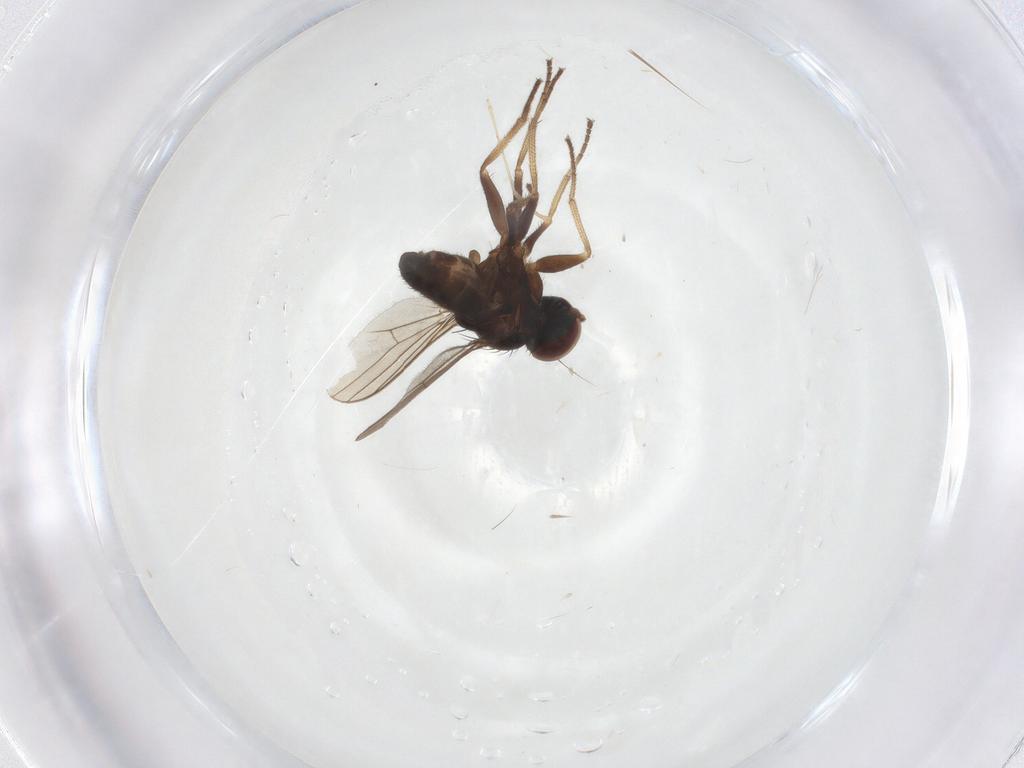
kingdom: Animalia
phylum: Arthropoda
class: Insecta
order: Diptera
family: Dolichopodidae
